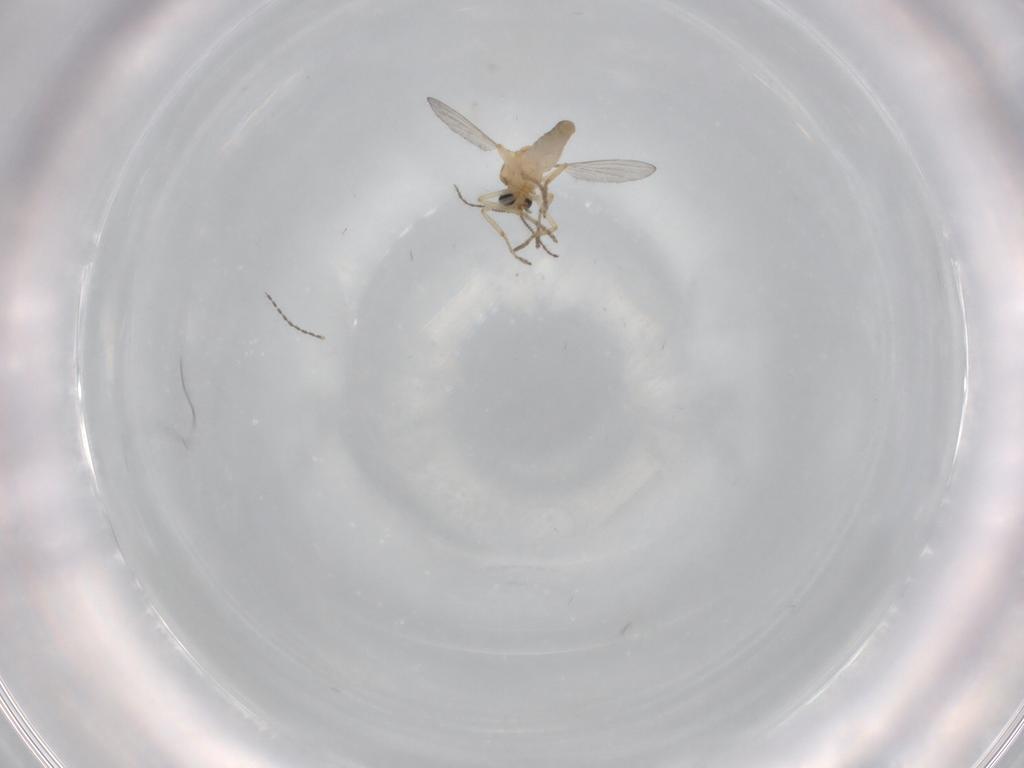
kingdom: Animalia
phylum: Arthropoda
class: Insecta
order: Diptera
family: Ceratopogonidae
